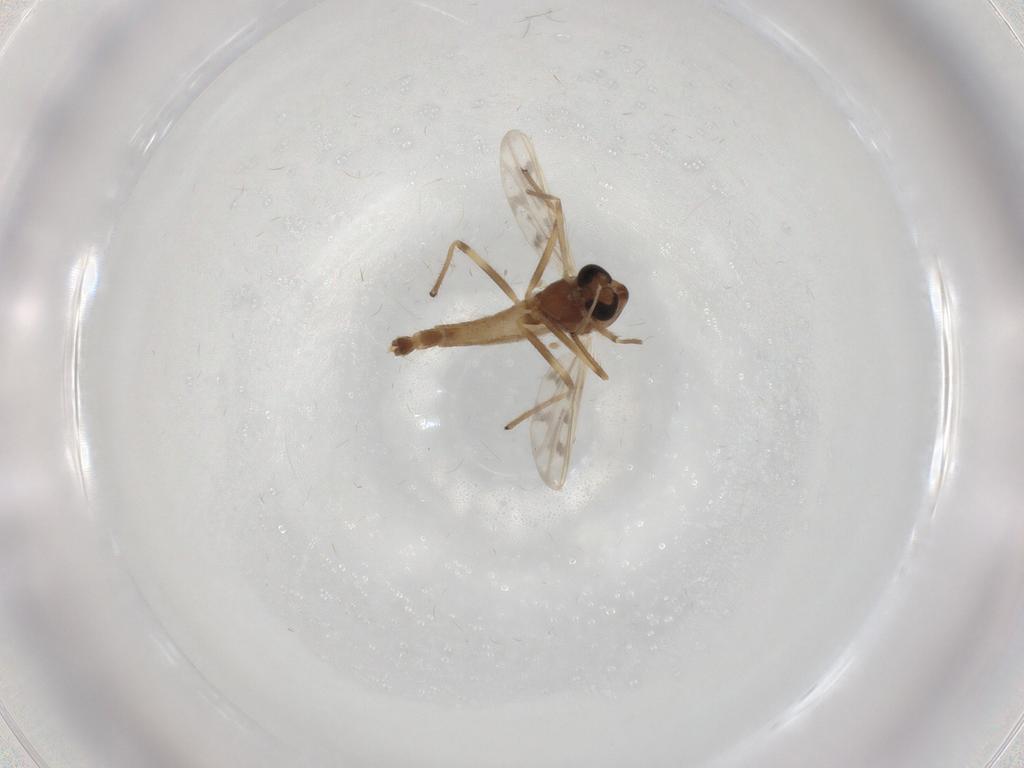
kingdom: Animalia
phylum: Arthropoda
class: Insecta
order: Diptera
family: Chironomidae
